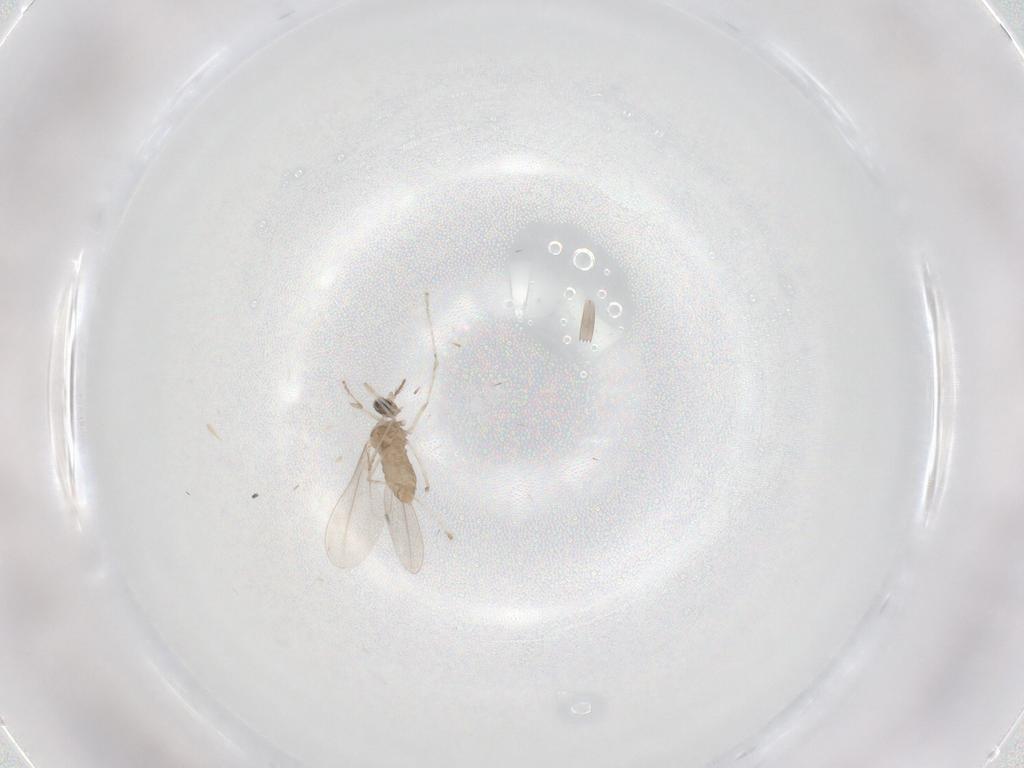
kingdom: Animalia
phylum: Arthropoda
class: Insecta
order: Diptera
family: Cecidomyiidae
